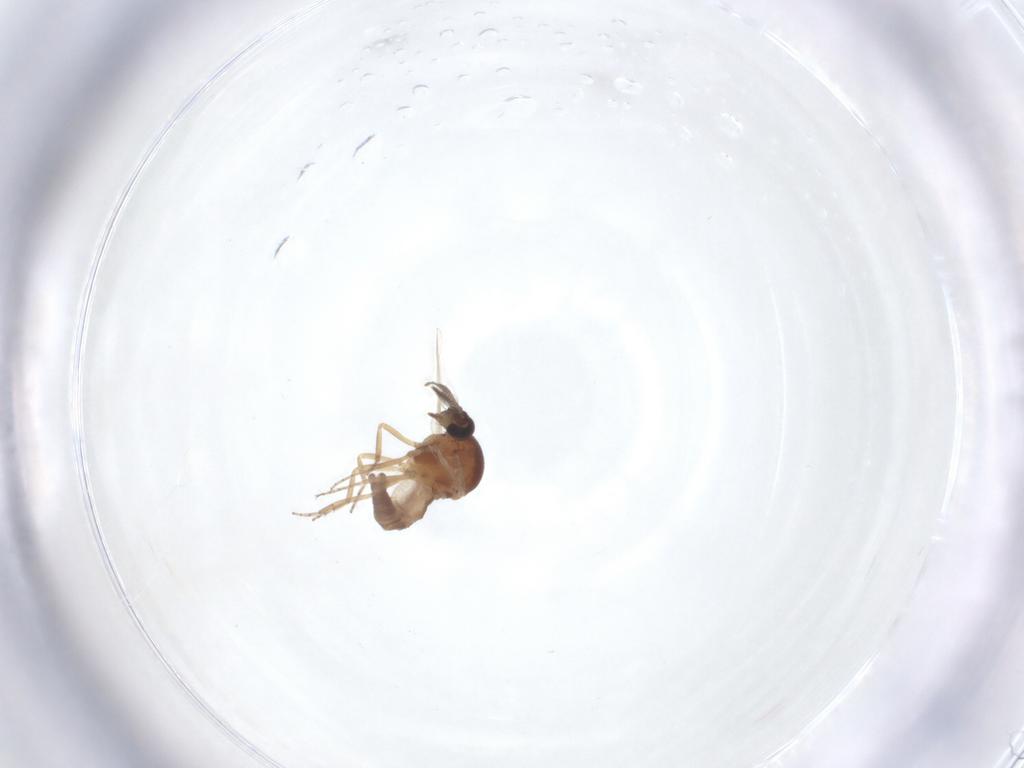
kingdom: Animalia
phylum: Arthropoda
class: Insecta
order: Diptera
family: Ceratopogonidae
